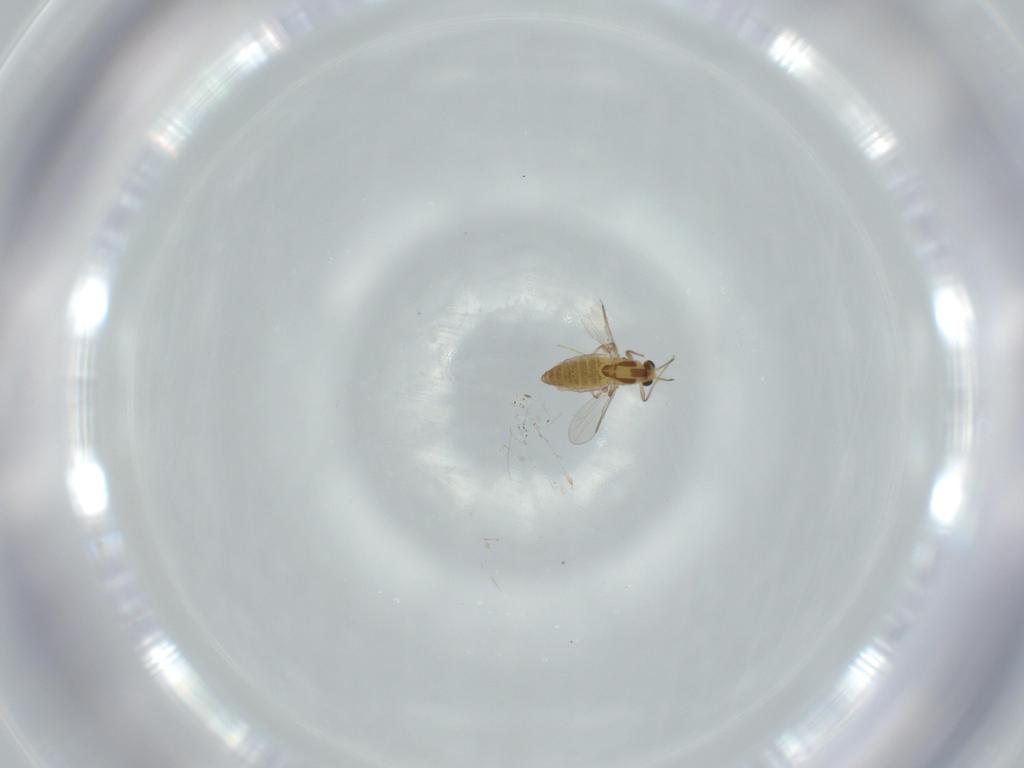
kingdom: Animalia
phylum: Arthropoda
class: Insecta
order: Diptera
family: Chironomidae
